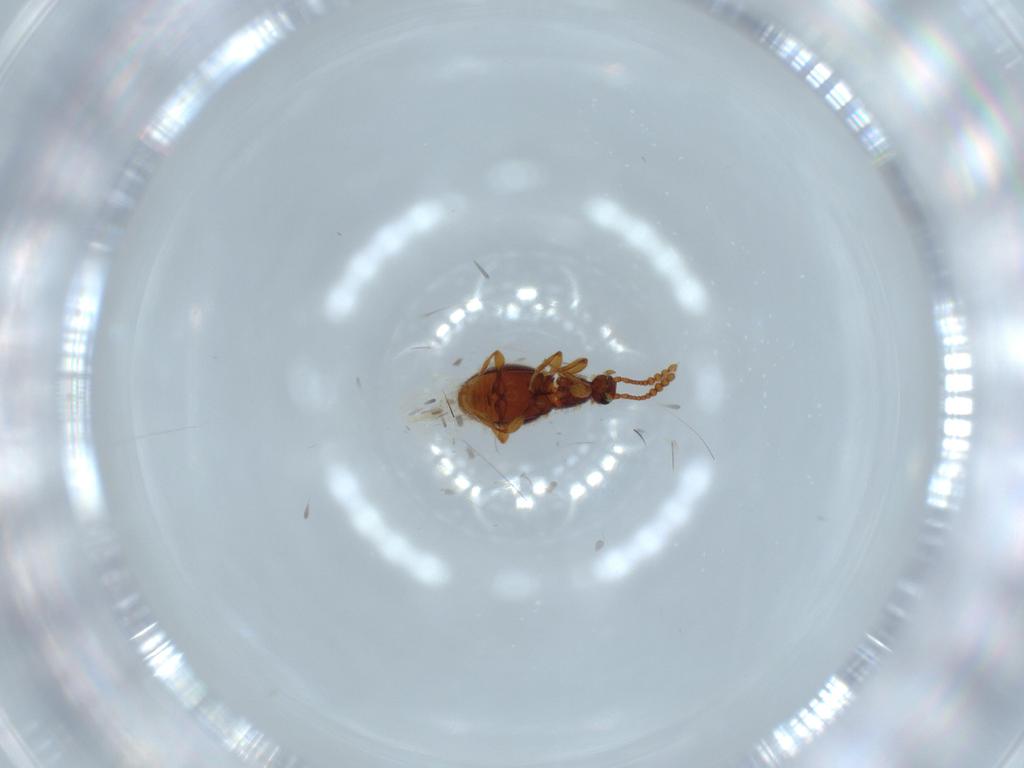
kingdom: Animalia
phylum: Arthropoda
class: Insecta
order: Coleoptera
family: Staphylinidae
